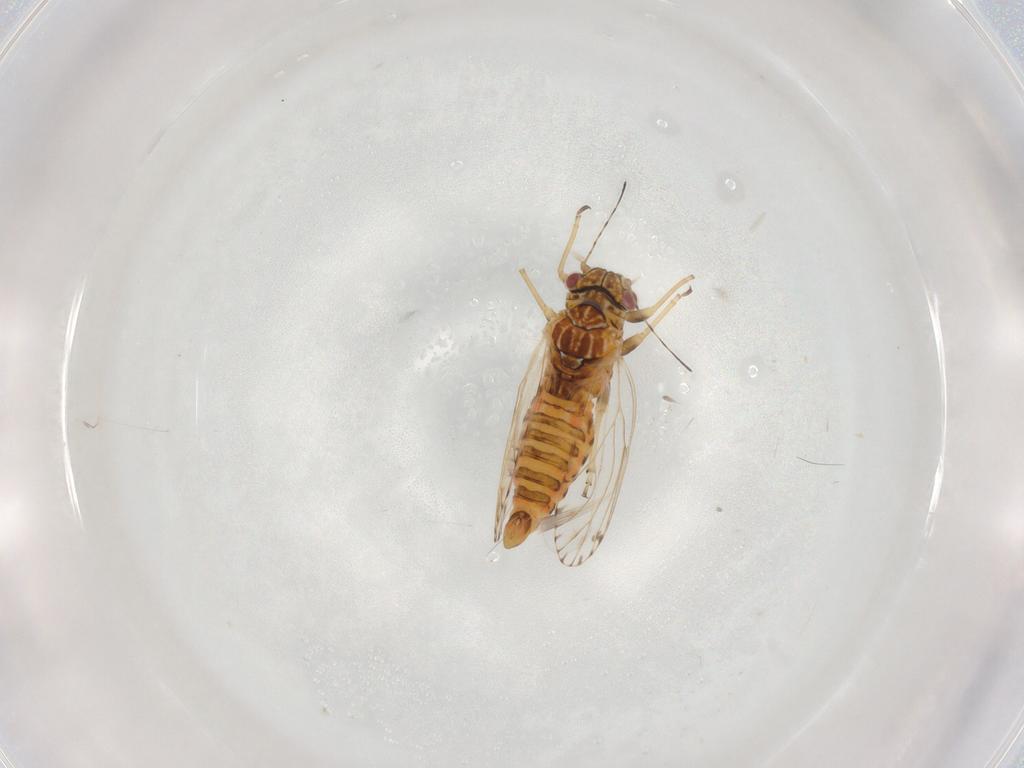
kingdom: Animalia
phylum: Arthropoda
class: Insecta
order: Hemiptera
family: Psyllidae
